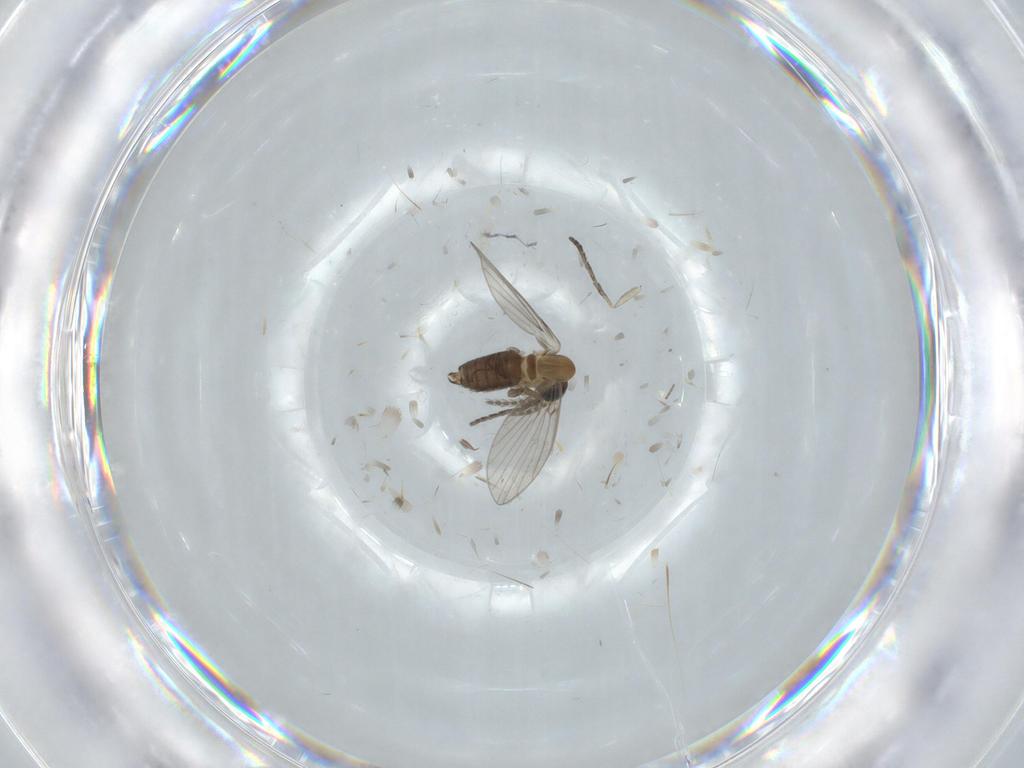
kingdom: Animalia
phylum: Arthropoda
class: Insecta
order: Diptera
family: Cecidomyiidae
